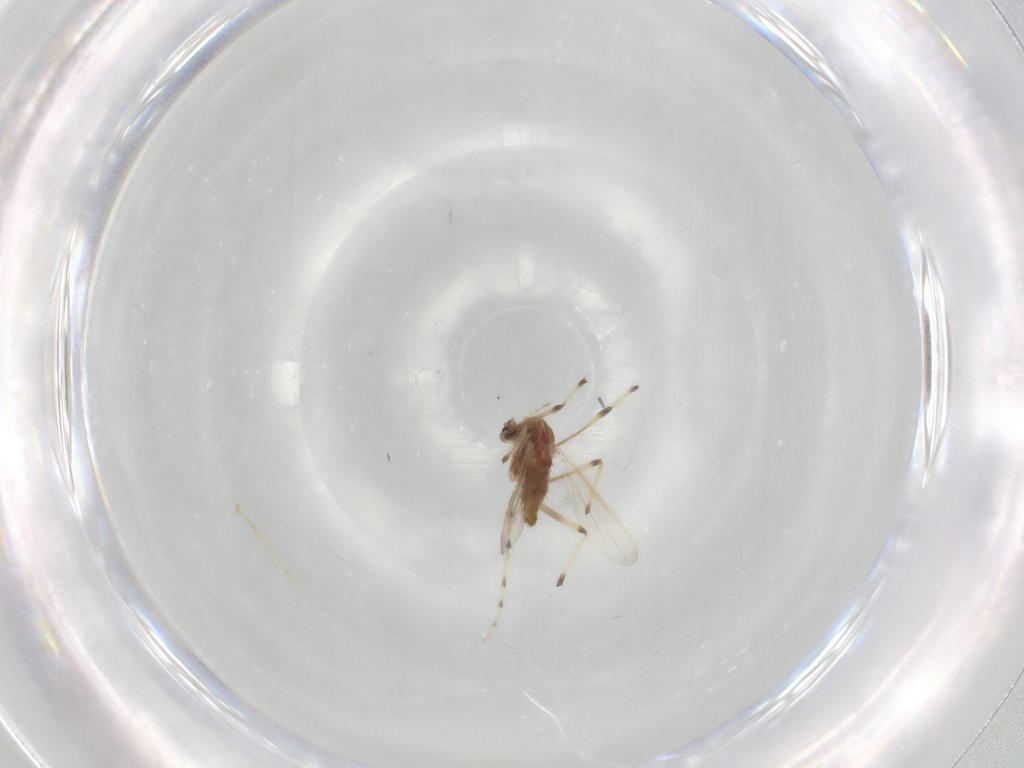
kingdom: Animalia
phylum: Arthropoda
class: Insecta
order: Diptera
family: Chironomidae
